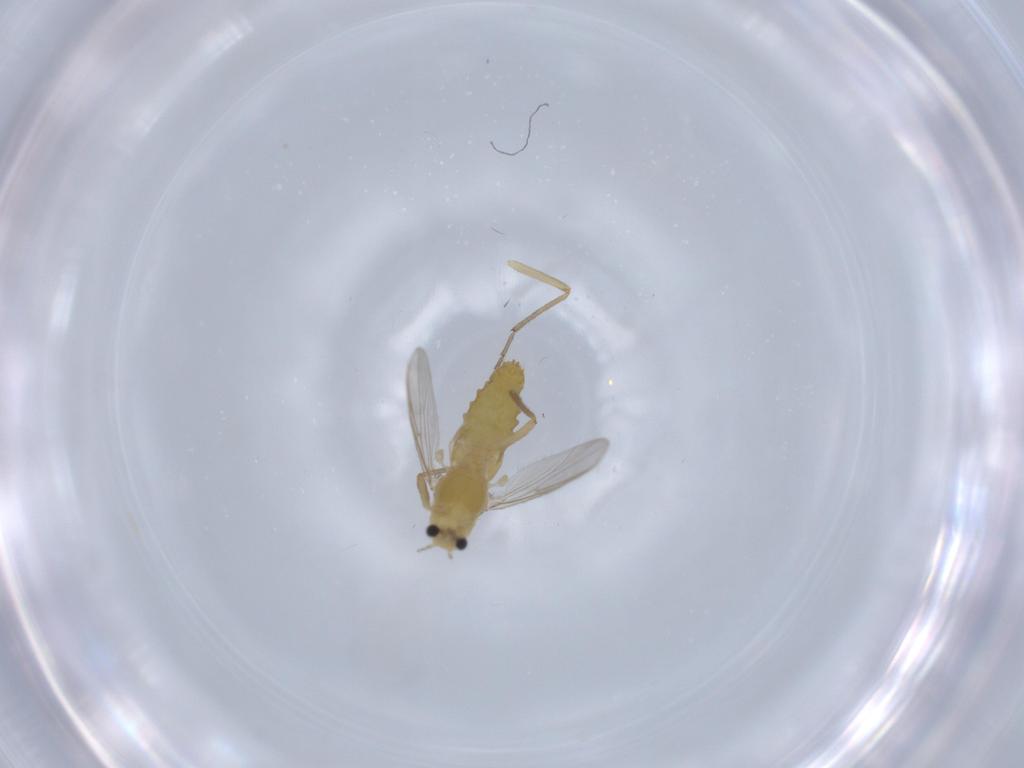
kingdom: Animalia
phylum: Arthropoda
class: Insecta
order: Diptera
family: Chironomidae
